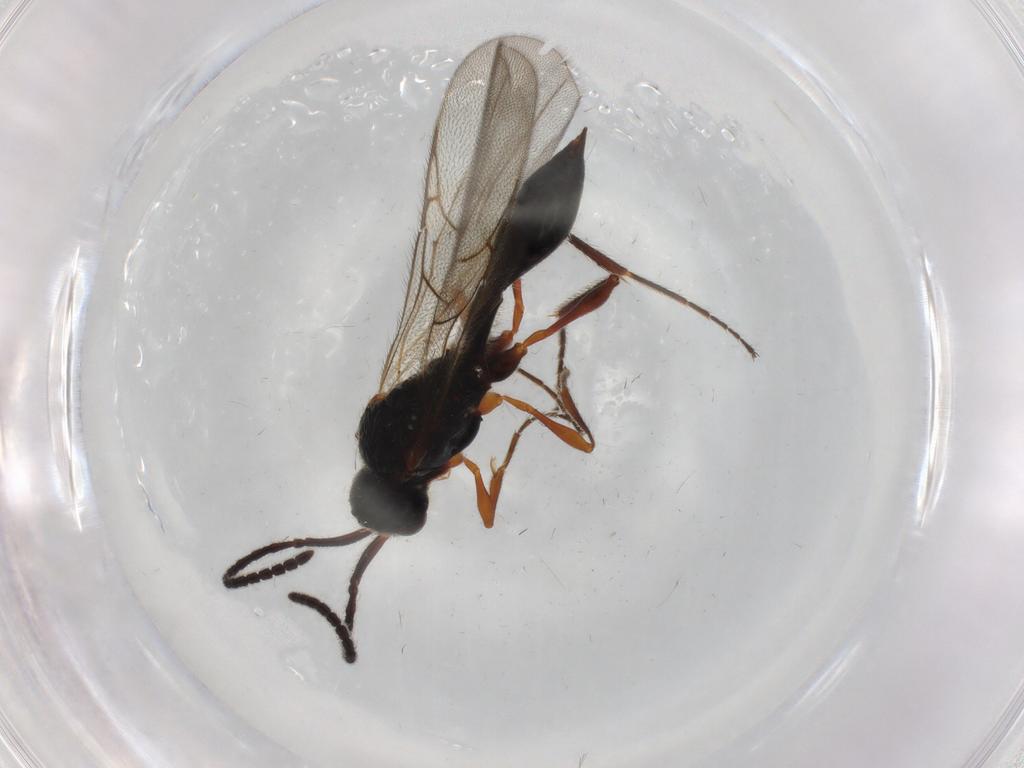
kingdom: Animalia
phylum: Arthropoda
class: Insecta
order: Hymenoptera
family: Diapriidae
